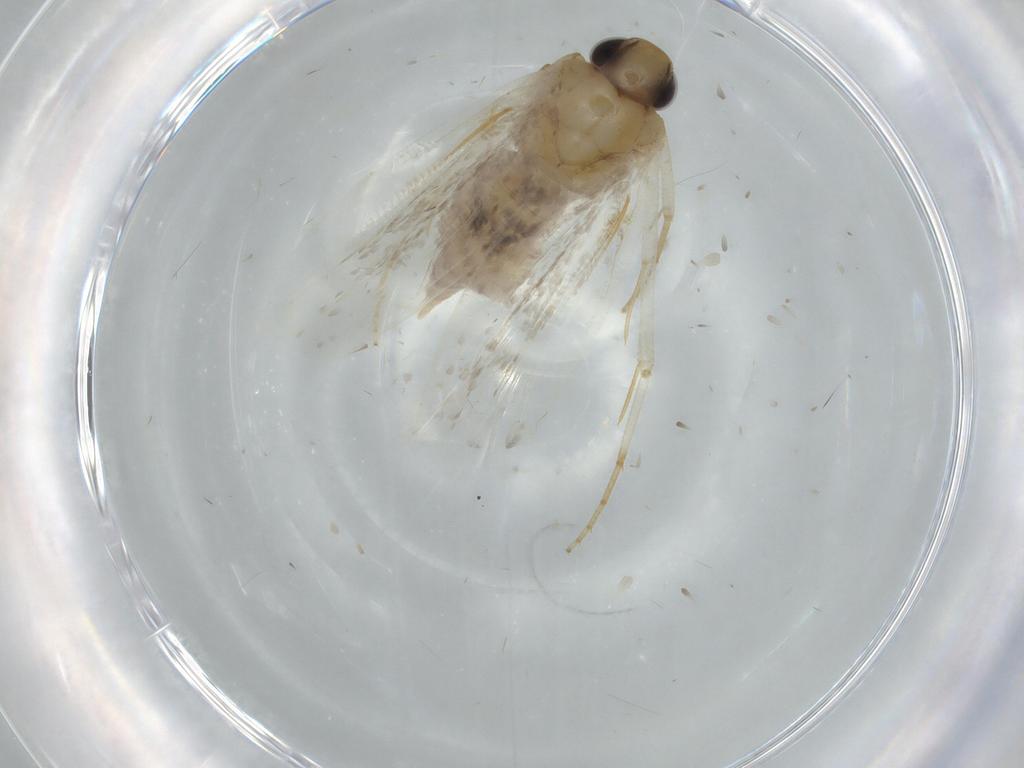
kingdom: Animalia
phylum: Arthropoda
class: Insecta
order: Lepidoptera
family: Gelechiidae
